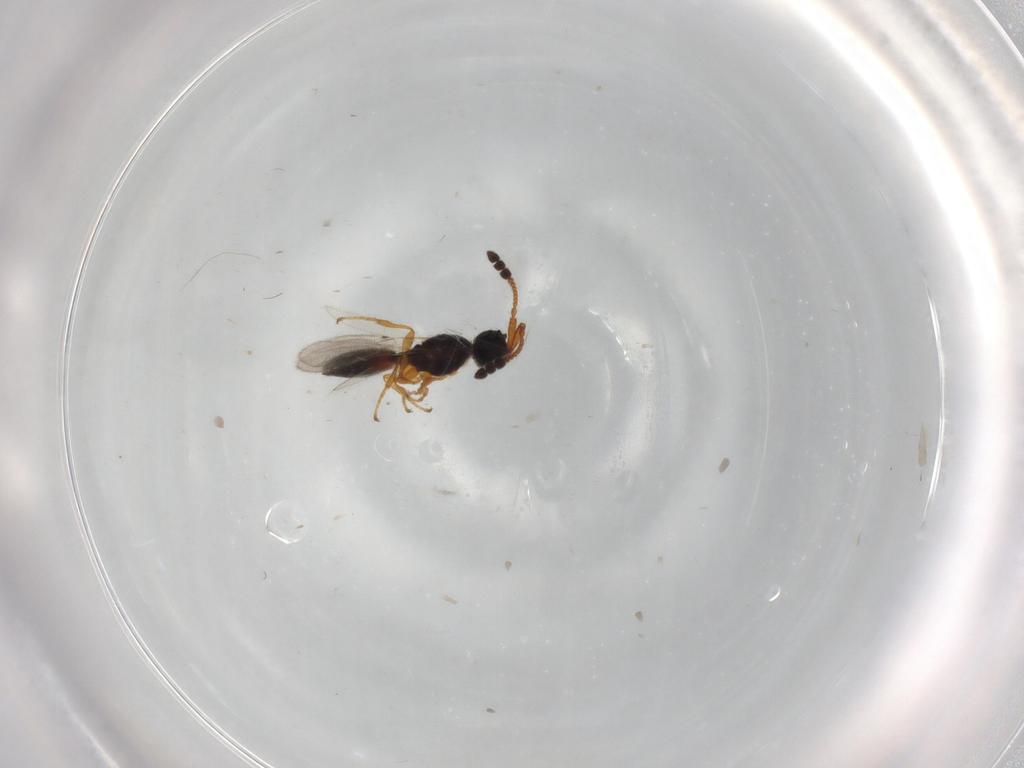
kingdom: Animalia
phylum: Arthropoda
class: Insecta
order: Hymenoptera
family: Diapriidae
